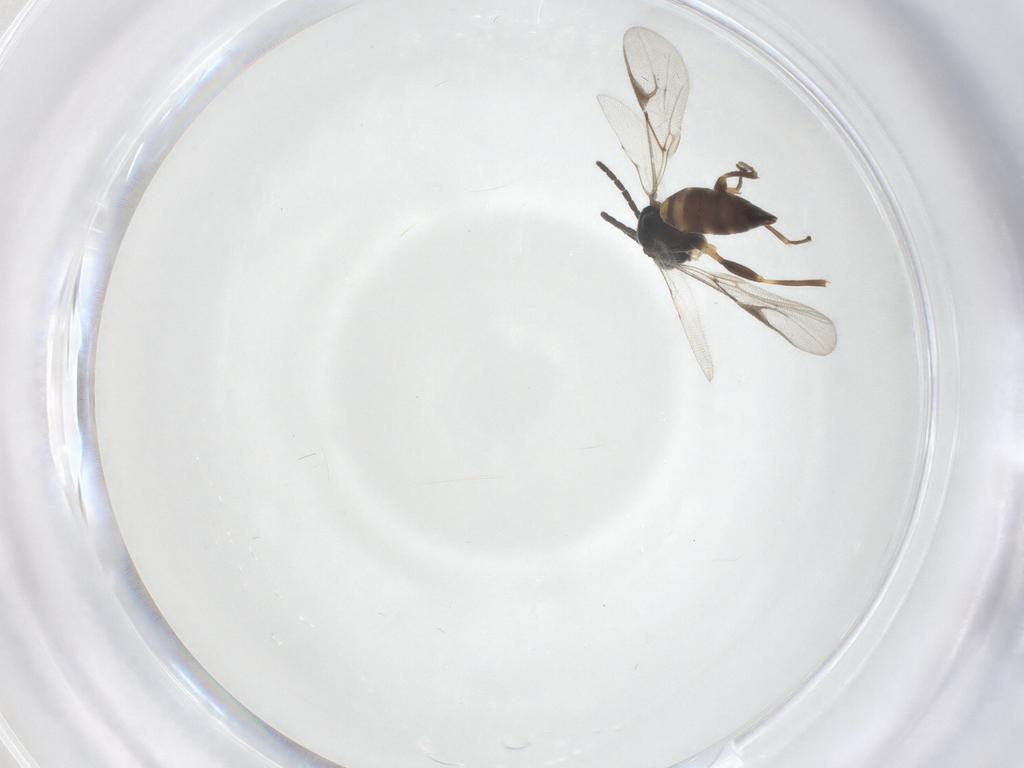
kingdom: Animalia
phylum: Arthropoda
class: Insecta
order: Hymenoptera
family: Braconidae
